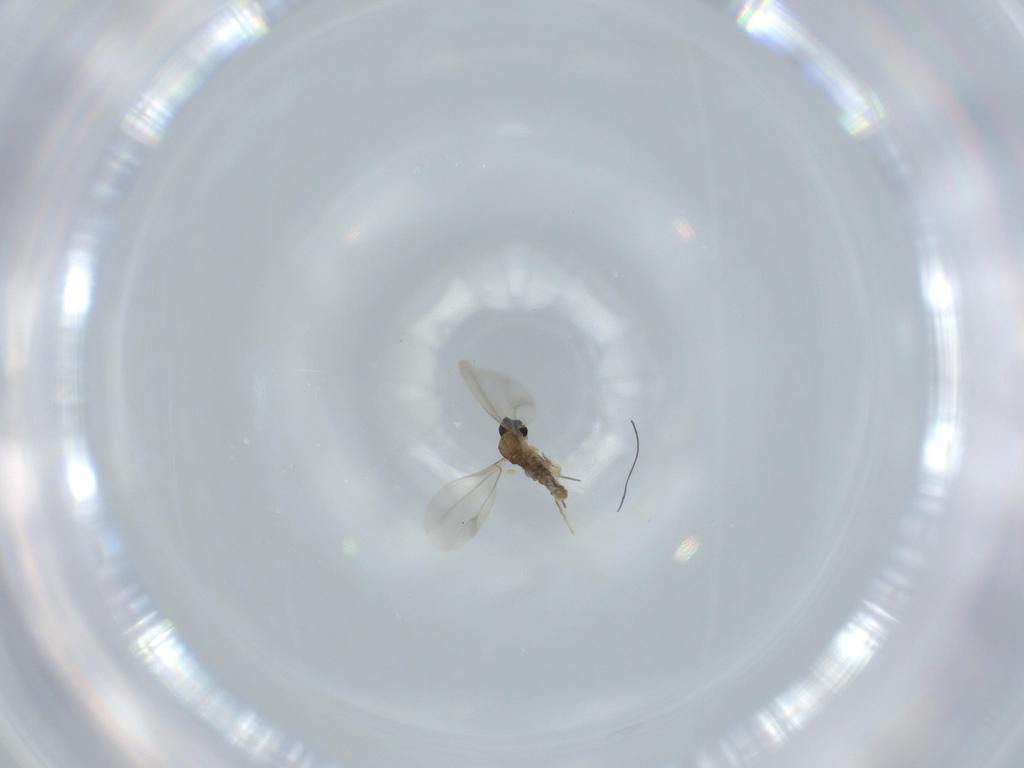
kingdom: Animalia
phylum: Arthropoda
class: Insecta
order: Diptera
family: Cecidomyiidae
